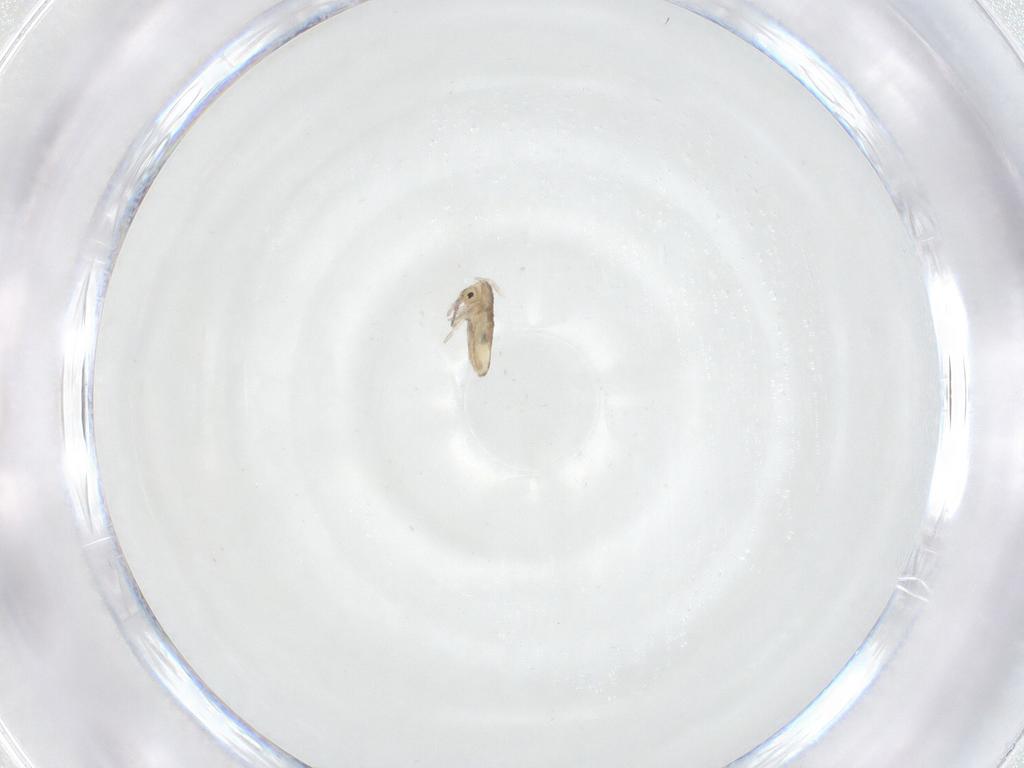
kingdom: Animalia
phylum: Arthropoda
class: Collembola
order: Entomobryomorpha
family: Entomobryidae
